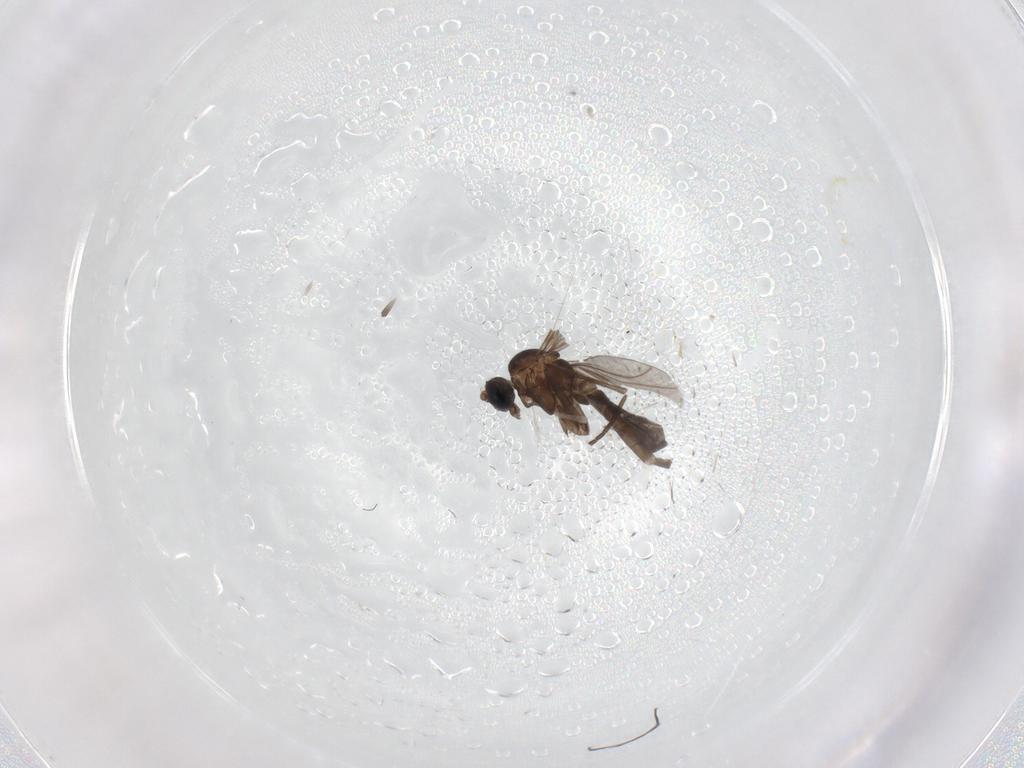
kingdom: Animalia
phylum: Arthropoda
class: Insecta
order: Diptera
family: Sciaridae
